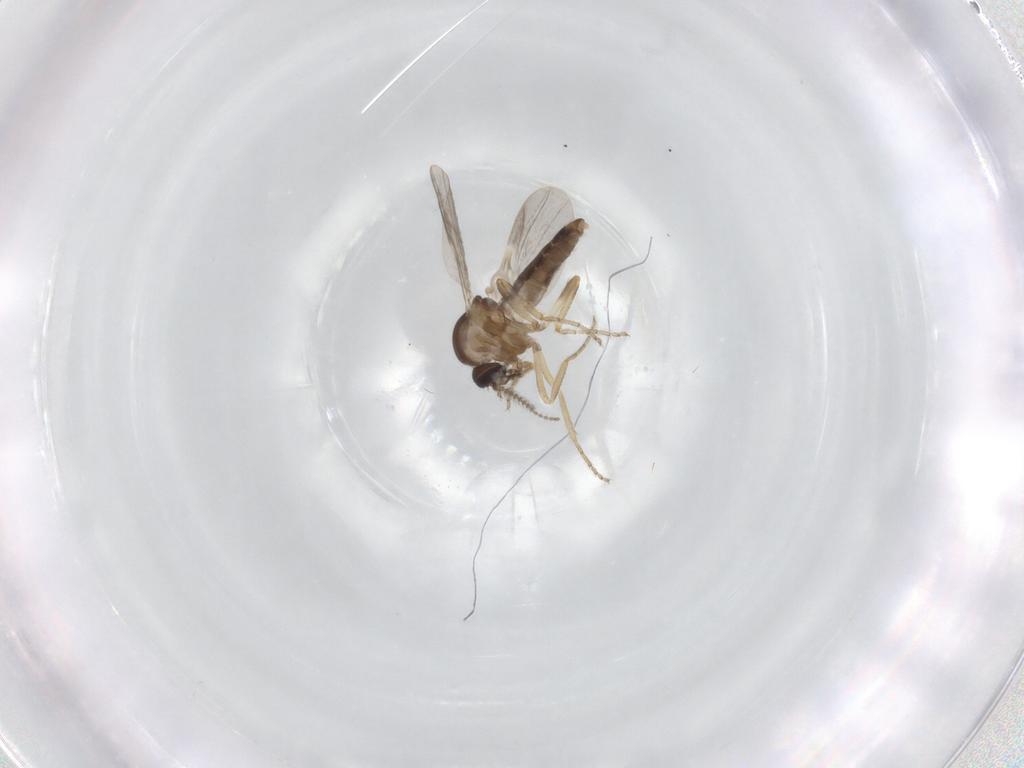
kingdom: Animalia
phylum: Arthropoda
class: Insecta
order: Diptera
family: Ceratopogonidae
